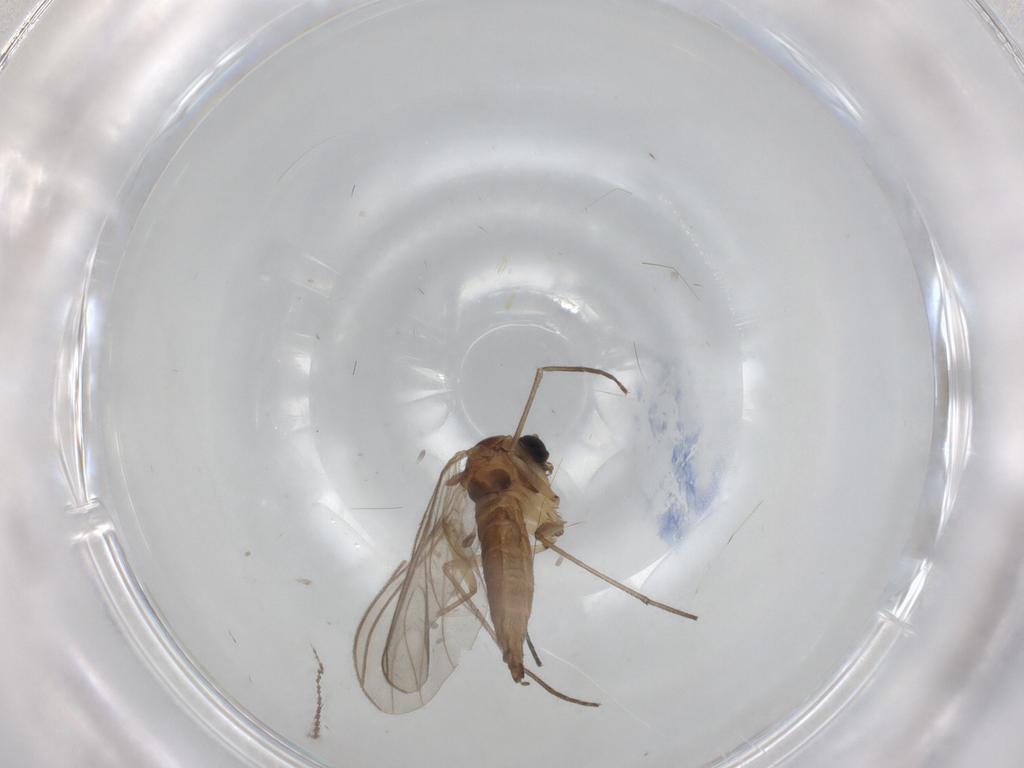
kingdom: Animalia
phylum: Arthropoda
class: Insecta
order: Diptera
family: Sciaridae
